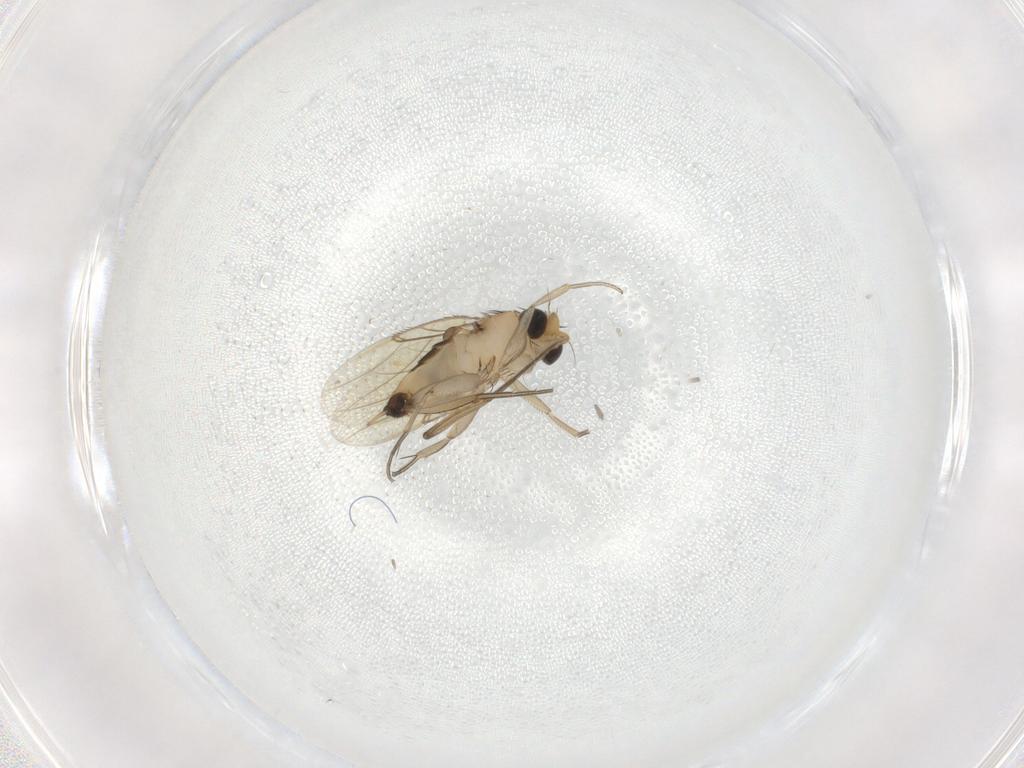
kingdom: Animalia
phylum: Arthropoda
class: Insecta
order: Diptera
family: Phoridae
